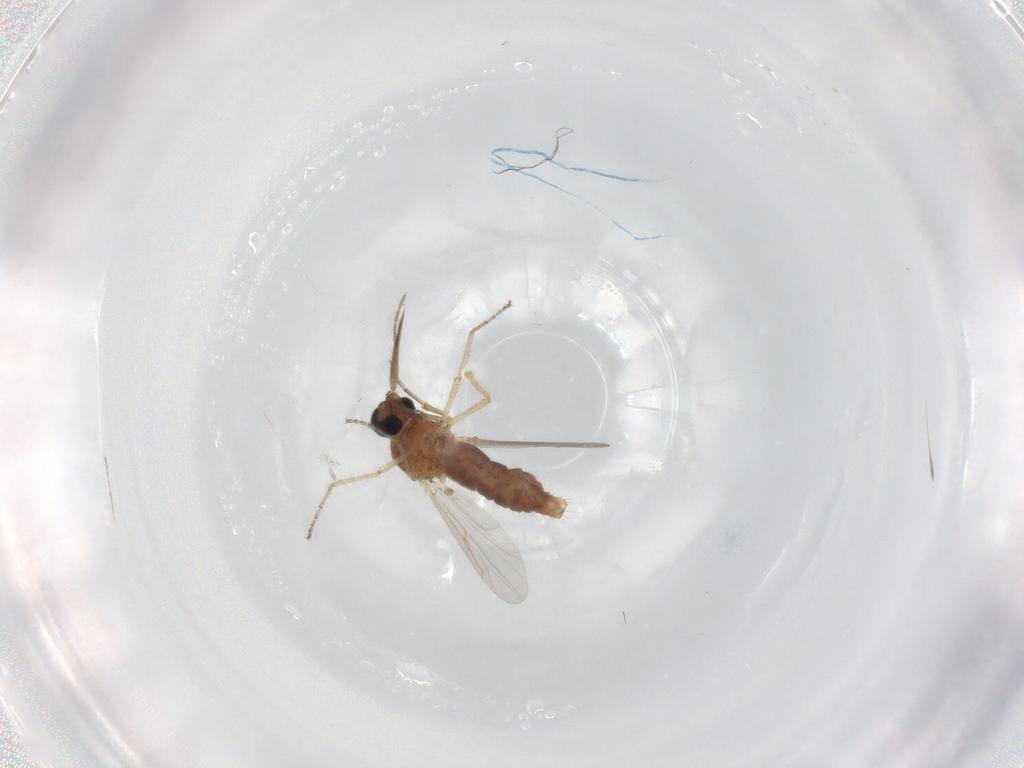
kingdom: Animalia
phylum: Arthropoda
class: Insecta
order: Diptera
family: Ceratopogonidae
